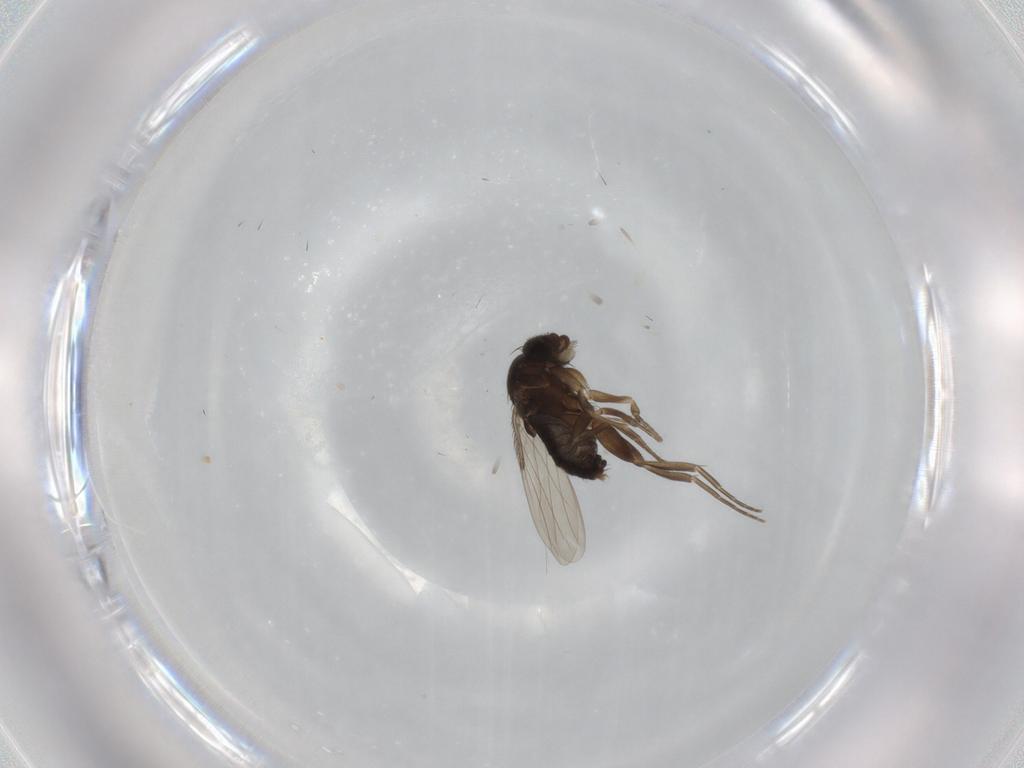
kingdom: Animalia
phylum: Arthropoda
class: Insecta
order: Diptera
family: Phoridae
